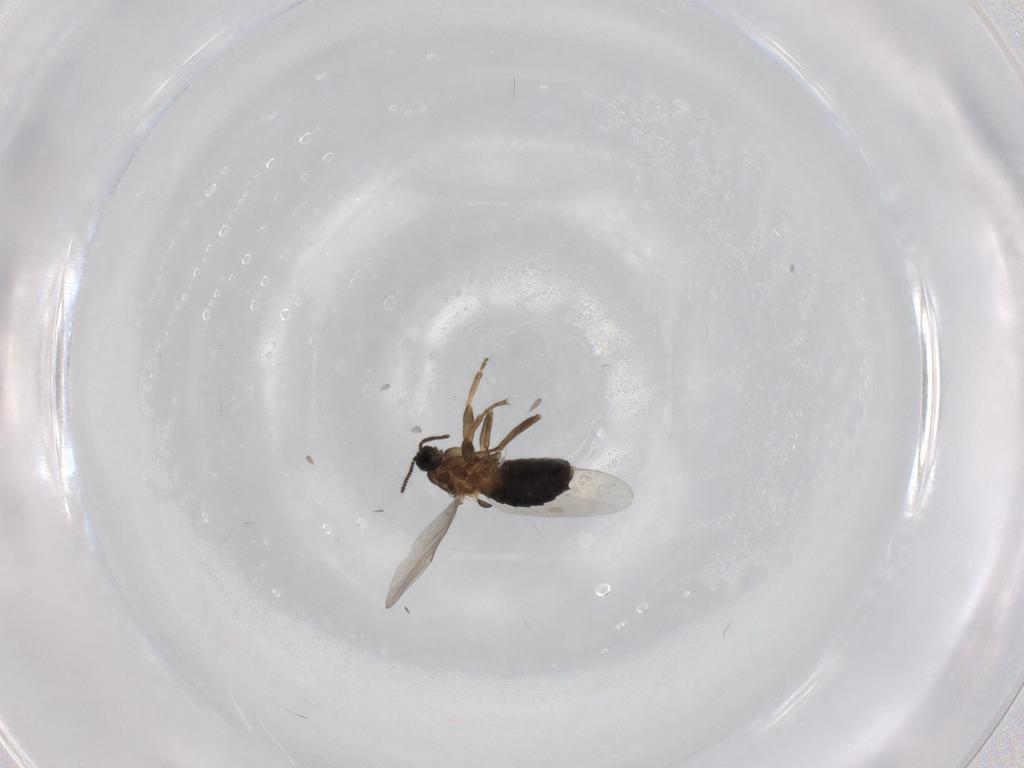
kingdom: Animalia
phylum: Arthropoda
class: Insecta
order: Diptera
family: Scatopsidae
